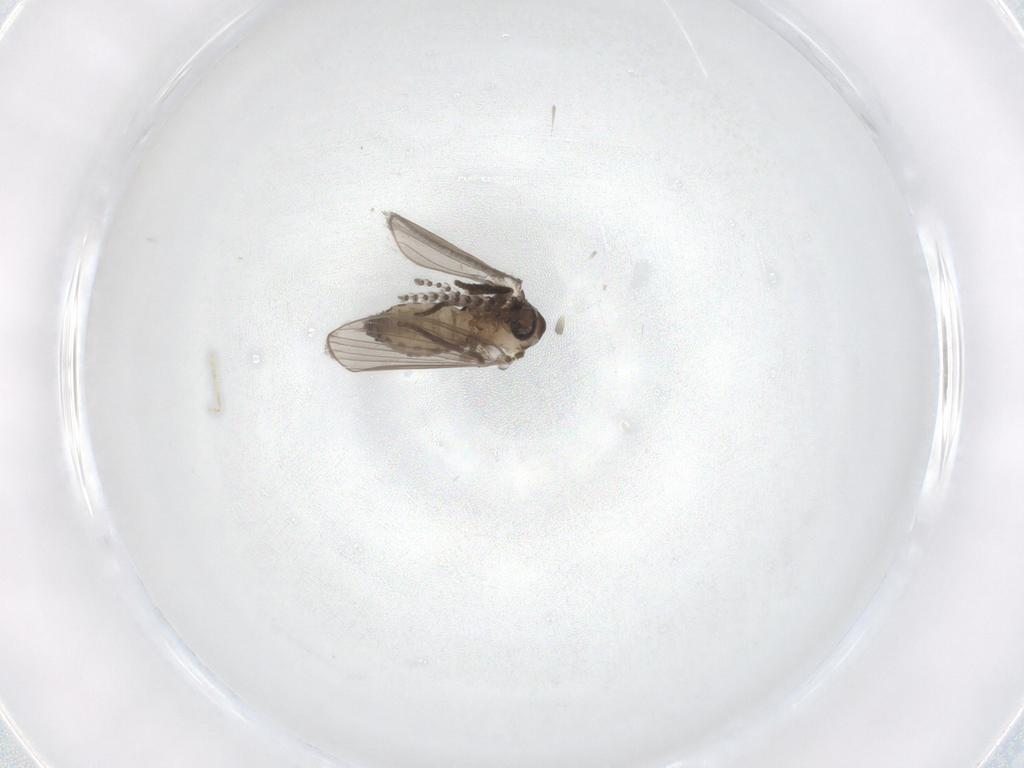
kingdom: Animalia
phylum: Arthropoda
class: Insecta
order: Diptera
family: Psychodidae
